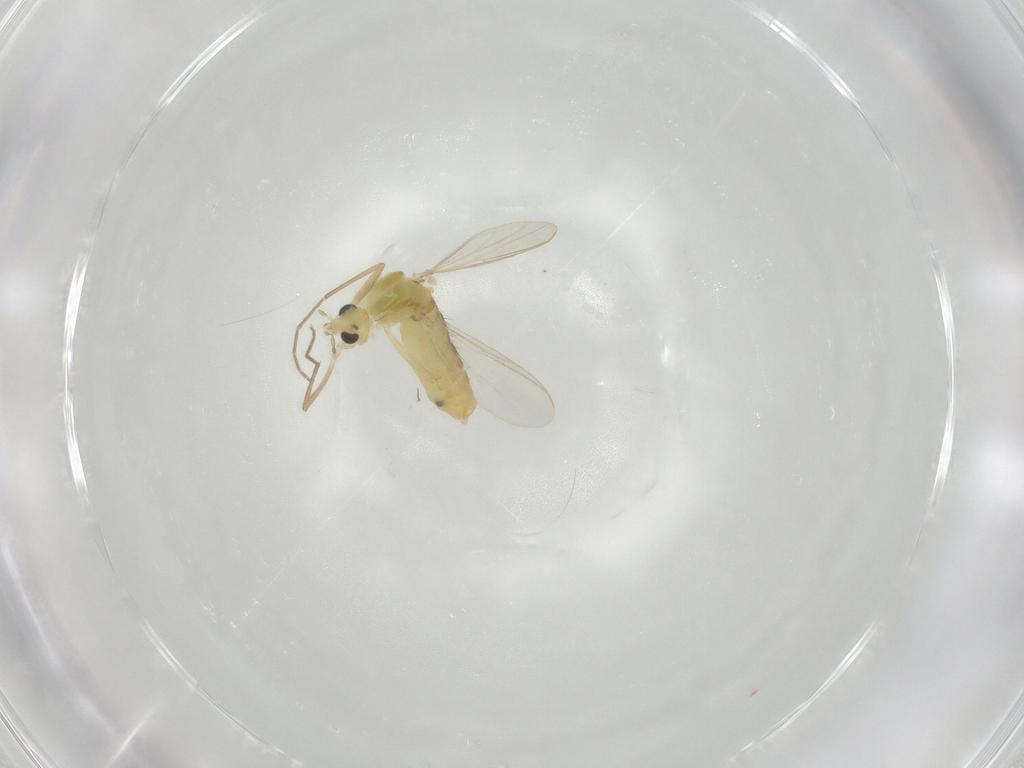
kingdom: Animalia
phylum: Arthropoda
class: Insecta
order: Diptera
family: Chironomidae
